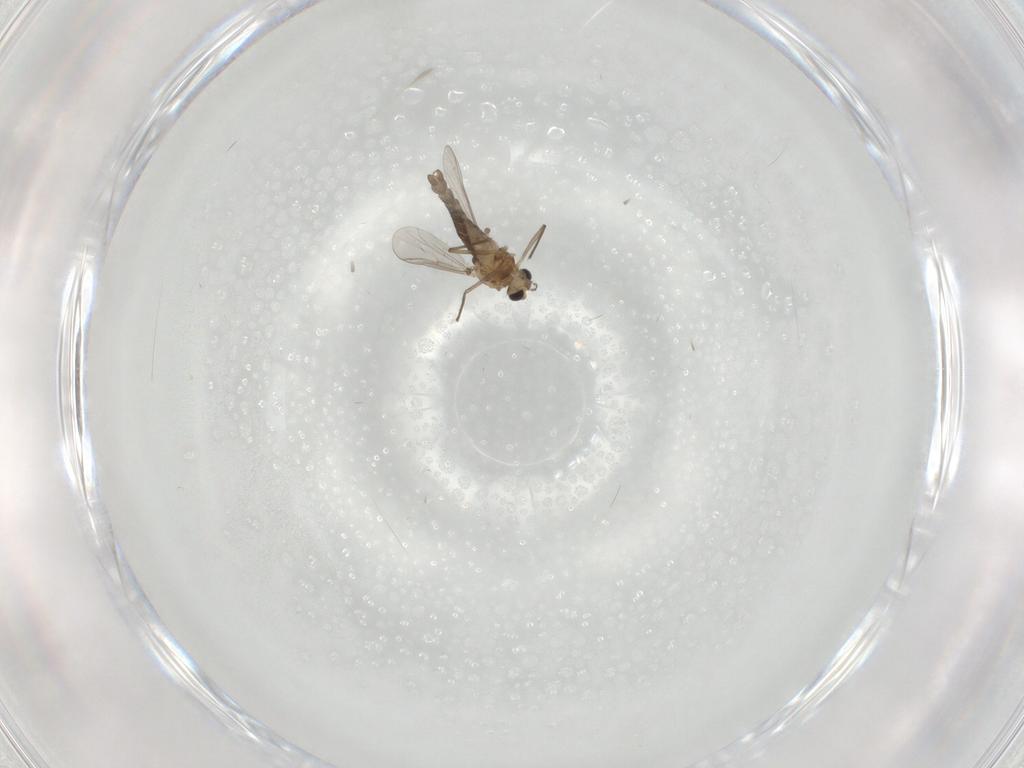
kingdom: Animalia
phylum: Arthropoda
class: Insecta
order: Diptera
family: Chironomidae
